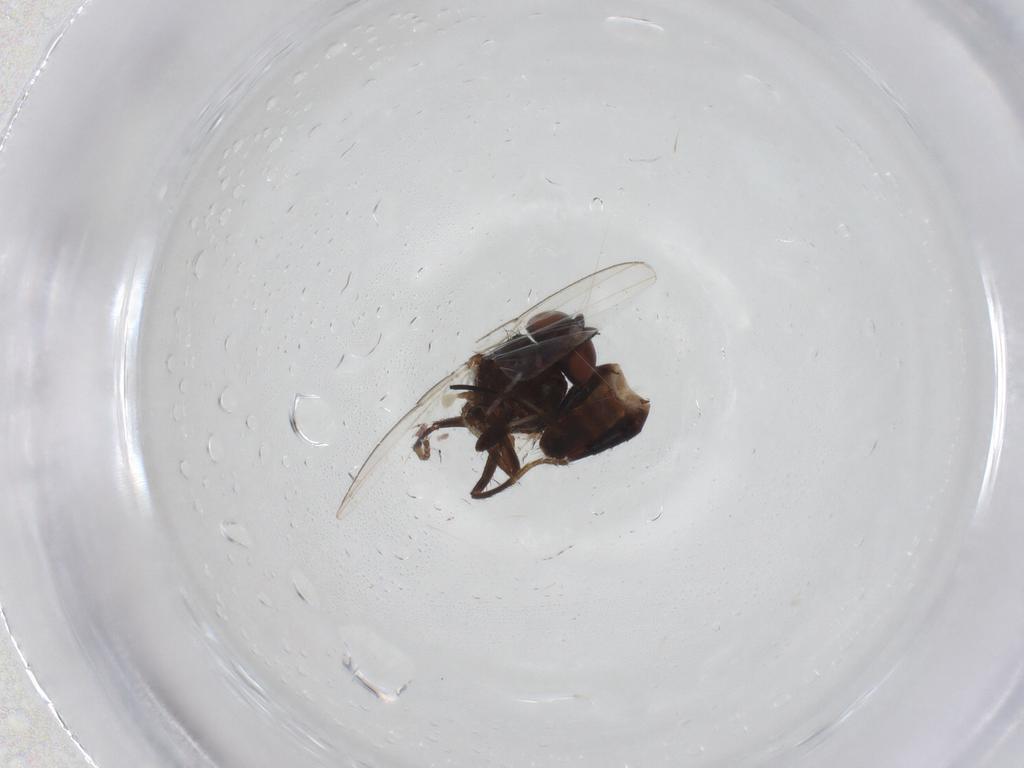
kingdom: Animalia
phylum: Arthropoda
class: Insecta
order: Diptera
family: Milichiidae
